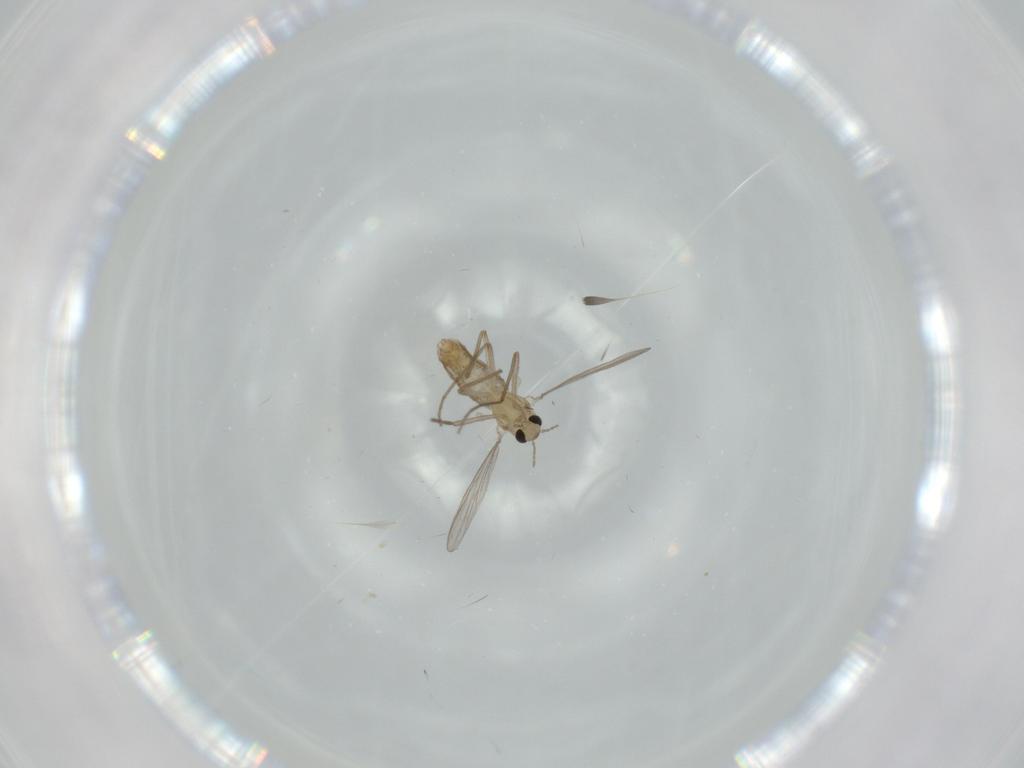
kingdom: Animalia
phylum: Arthropoda
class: Insecta
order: Diptera
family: Chironomidae
